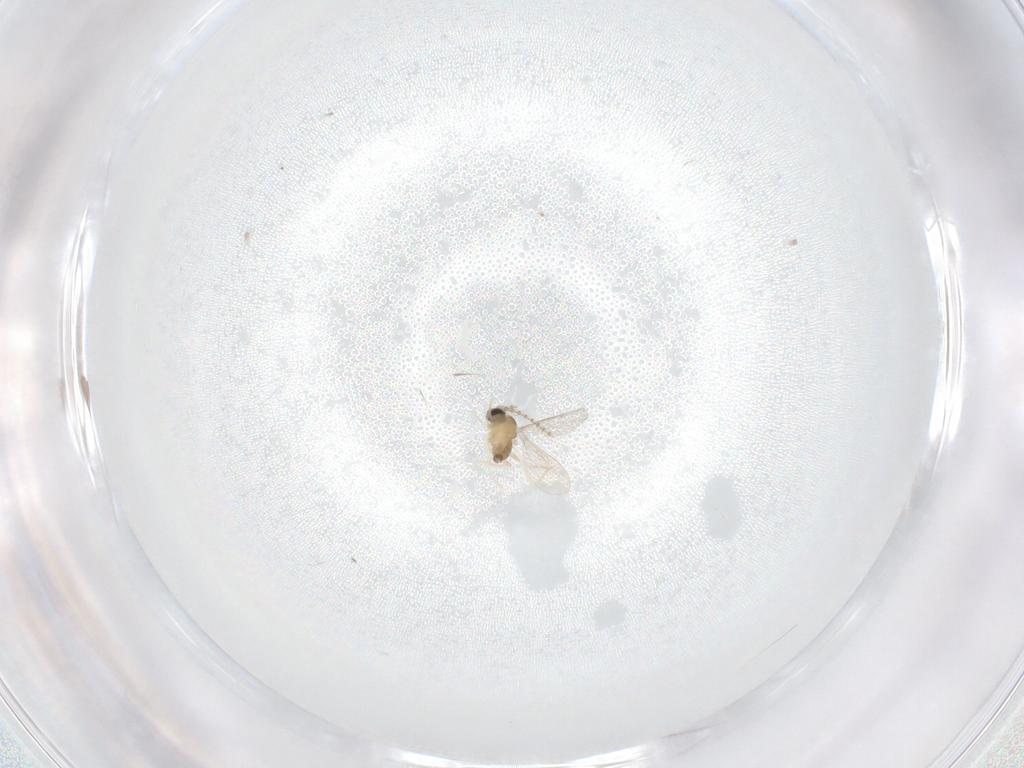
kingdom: Animalia
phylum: Arthropoda
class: Insecta
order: Diptera
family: Cecidomyiidae
